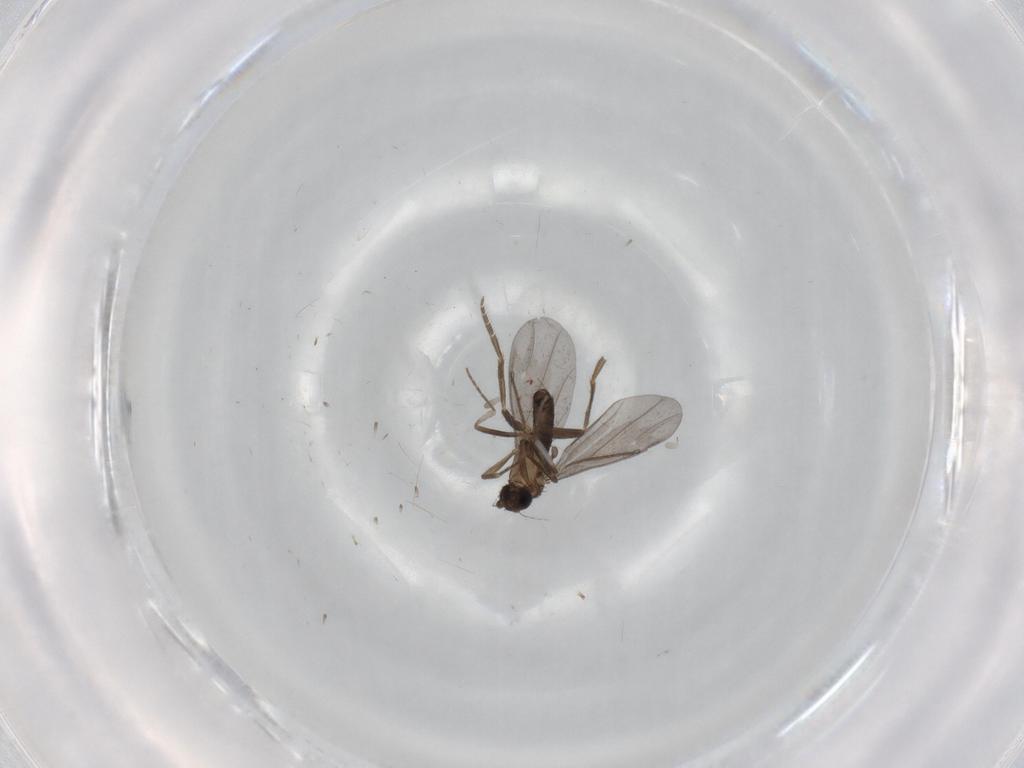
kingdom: Animalia
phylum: Arthropoda
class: Insecta
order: Diptera
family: Phoridae
